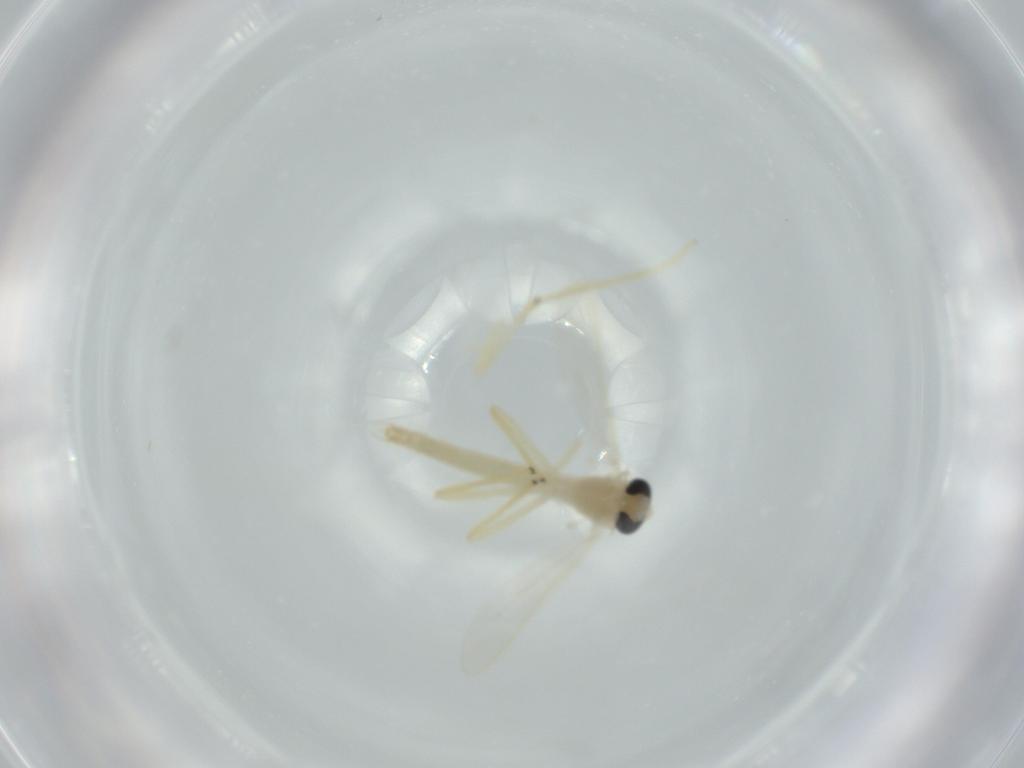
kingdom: Animalia
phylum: Arthropoda
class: Insecta
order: Diptera
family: Chironomidae
